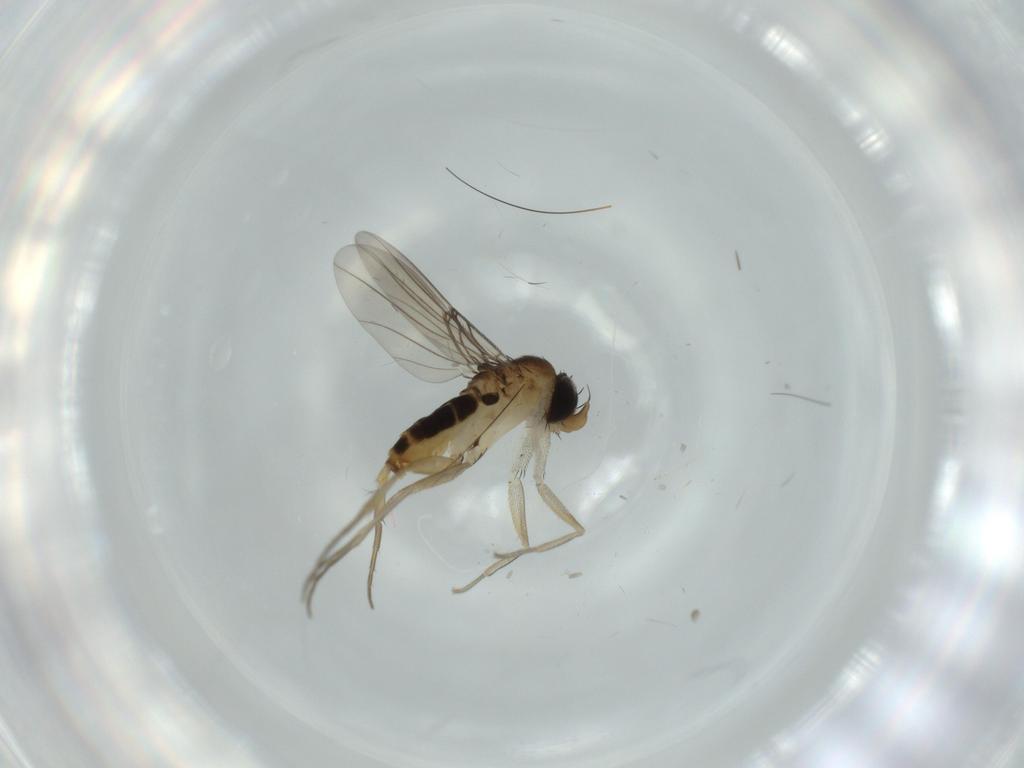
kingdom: Animalia
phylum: Arthropoda
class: Insecta
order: Diptera
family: Phoridae
